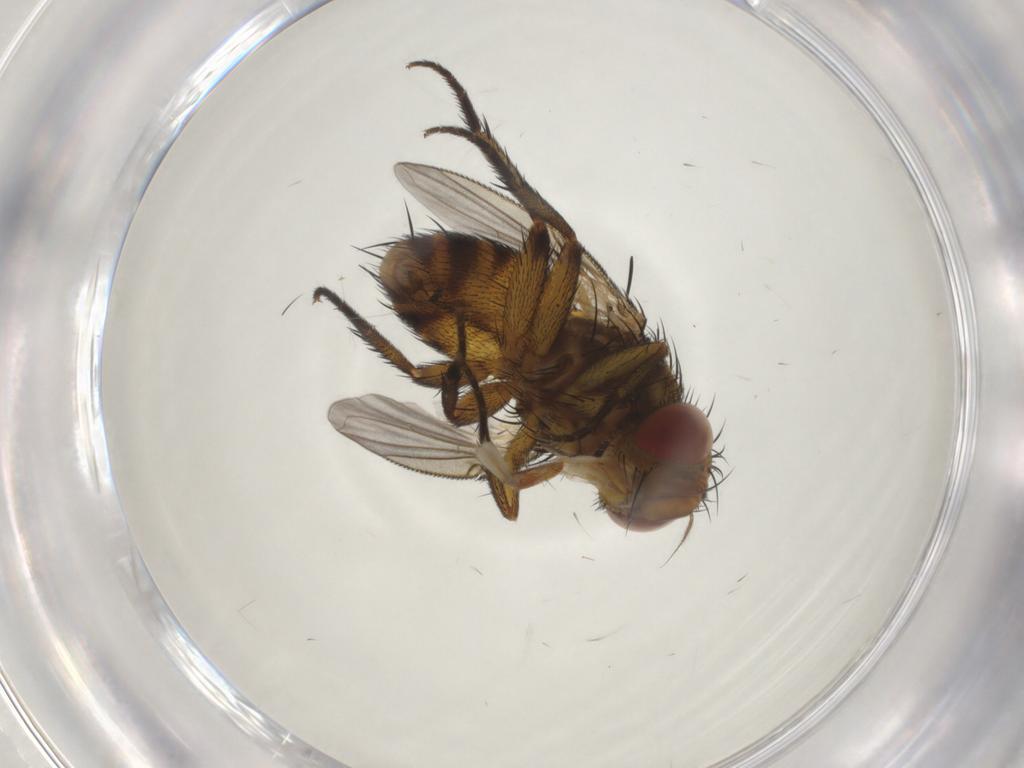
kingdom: Animalia
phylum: Arthropoda
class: Insecta
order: Diptera
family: Tachinidae
